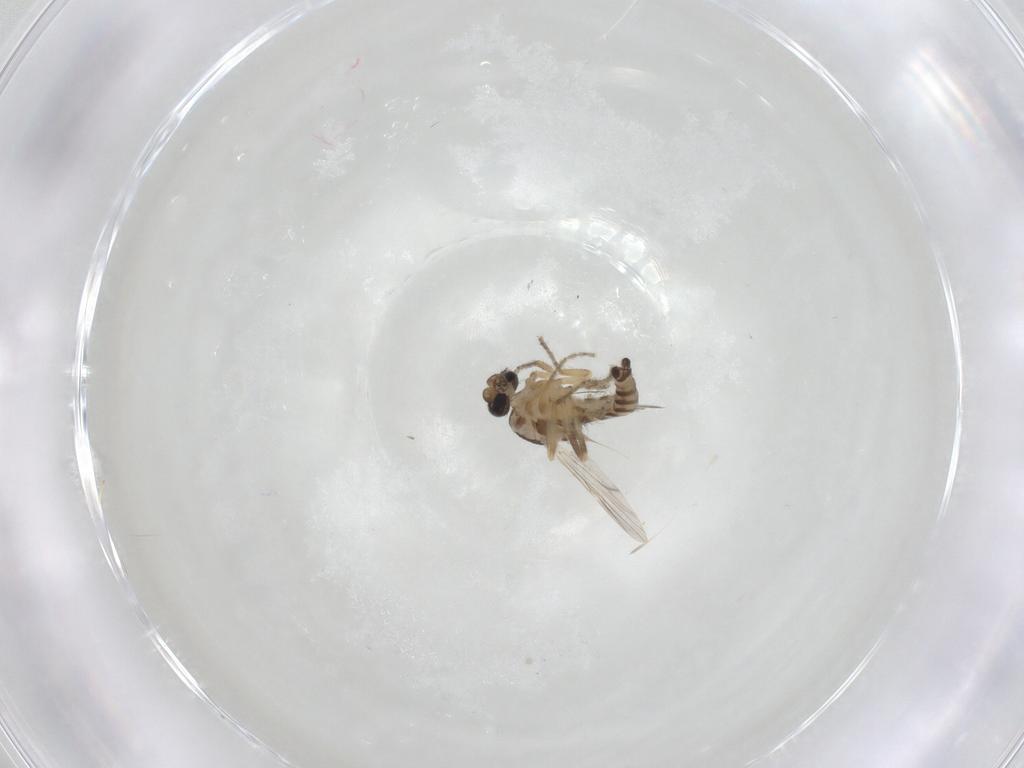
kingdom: Animalia
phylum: Arthropoda
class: Insecta
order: Diptera
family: Ceratopogonidae
